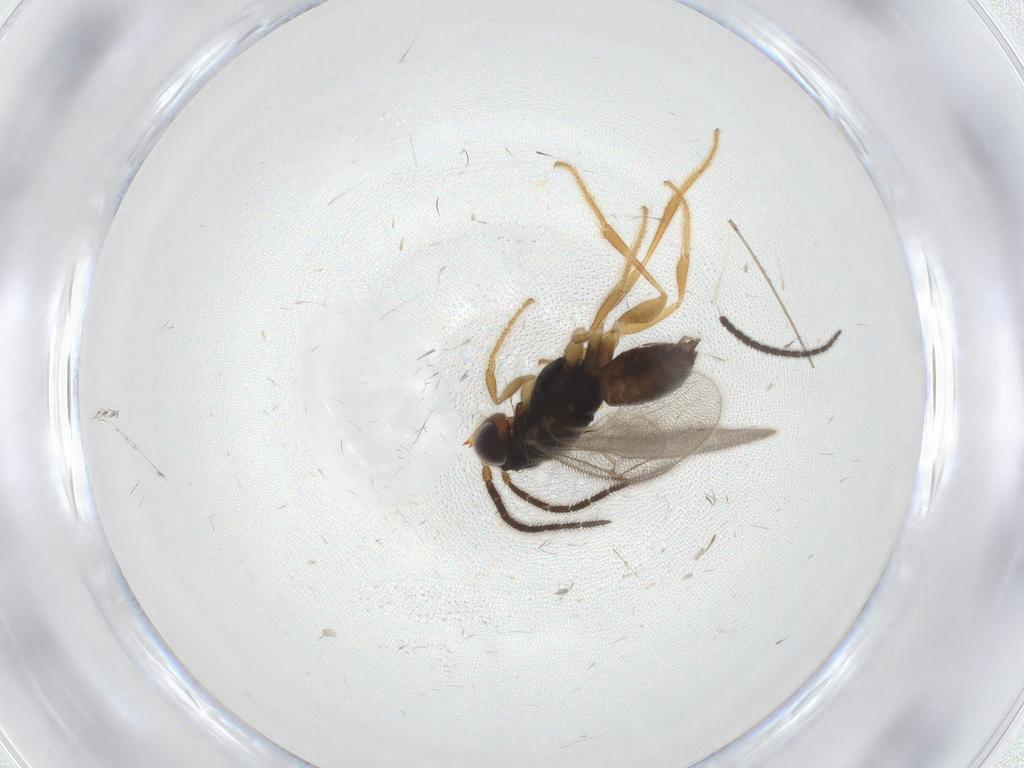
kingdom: Animalia
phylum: Arthropoda
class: Insecta
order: Hymenoptera
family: Dryinidae
